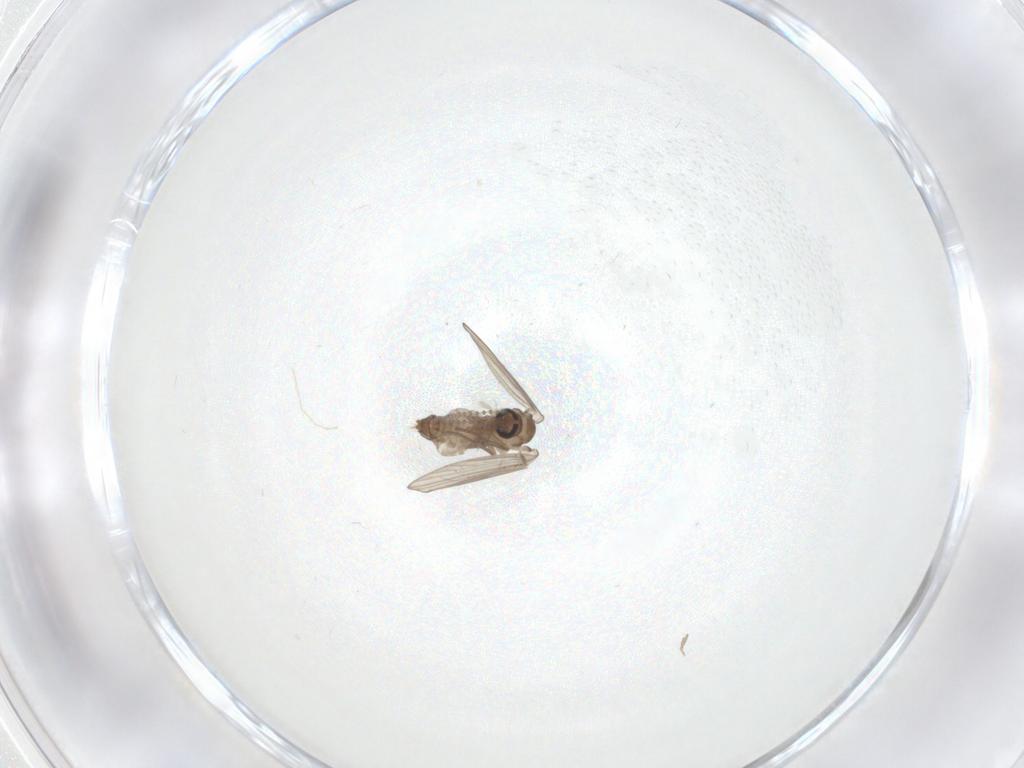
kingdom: Animalia
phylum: Arthropoda
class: Insecta
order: Diptera
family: Psychodidae
